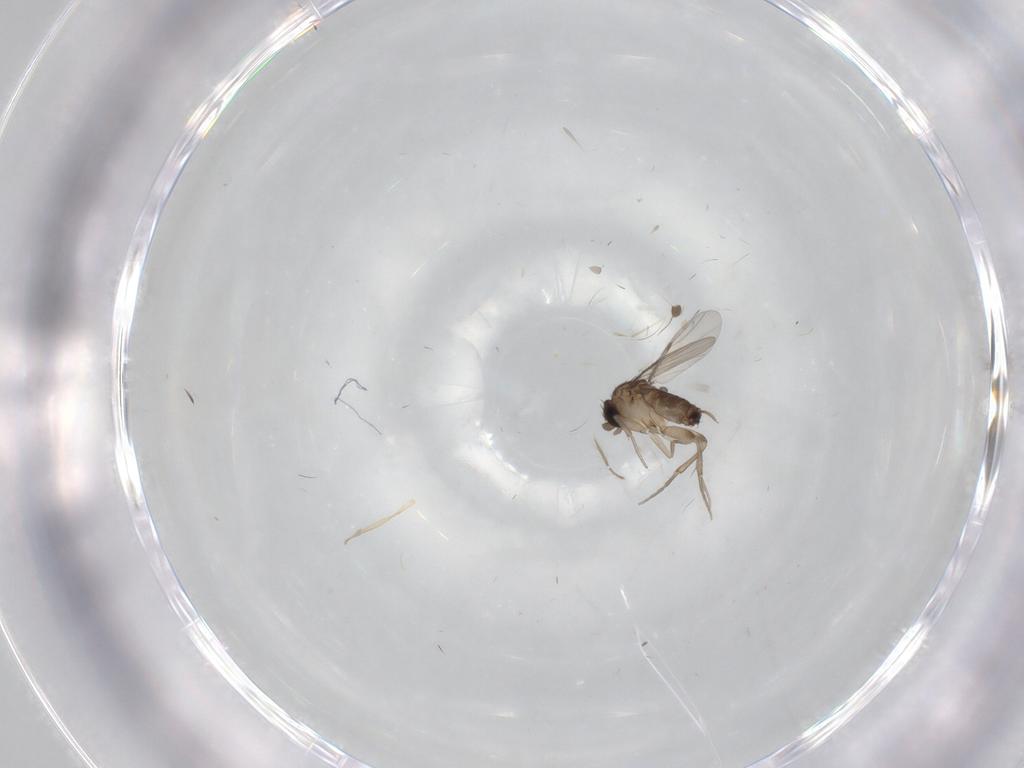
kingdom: Animalia
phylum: Arthropoda
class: Insecta
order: Diptera
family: Phoridae
